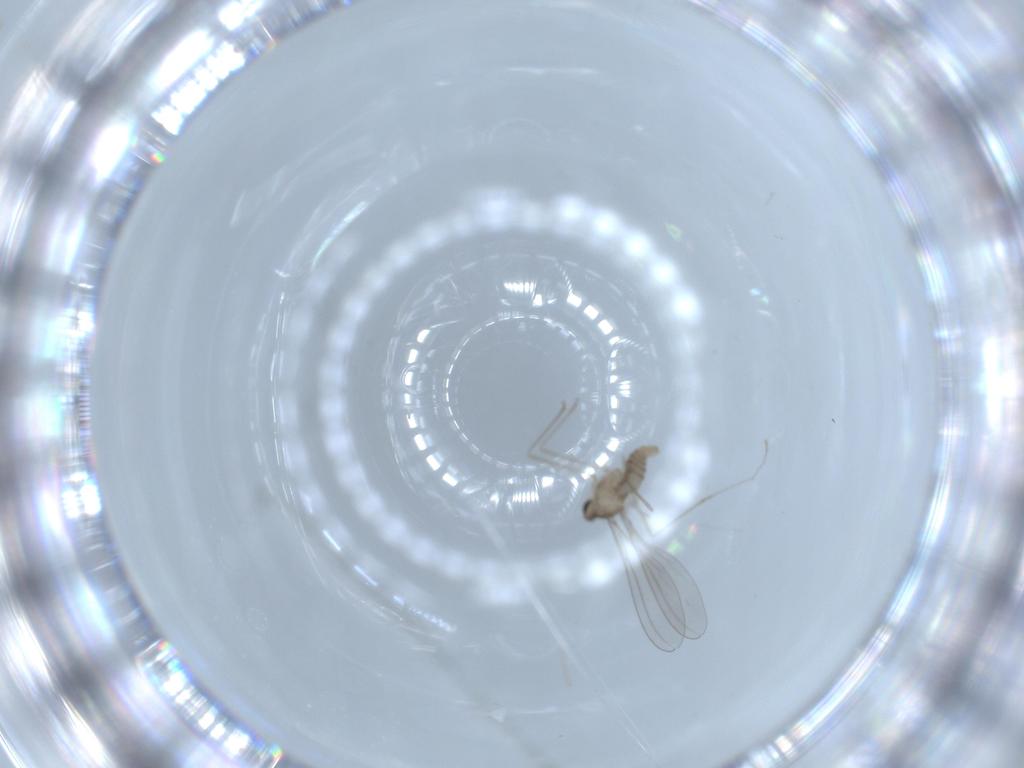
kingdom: Animalia
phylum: Arthropoda
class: Insecta
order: Diptera
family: Cecidomyiidae
